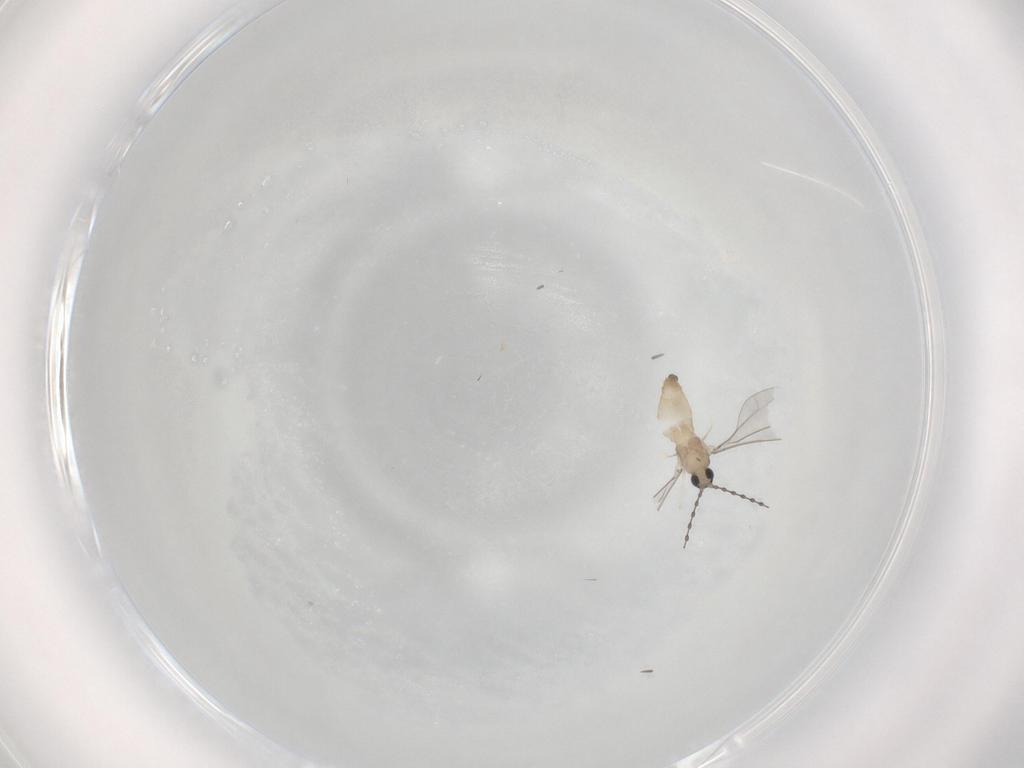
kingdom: Animalia
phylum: Arthropoda
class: Insecta
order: Diptera
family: Cecidomyiidae
